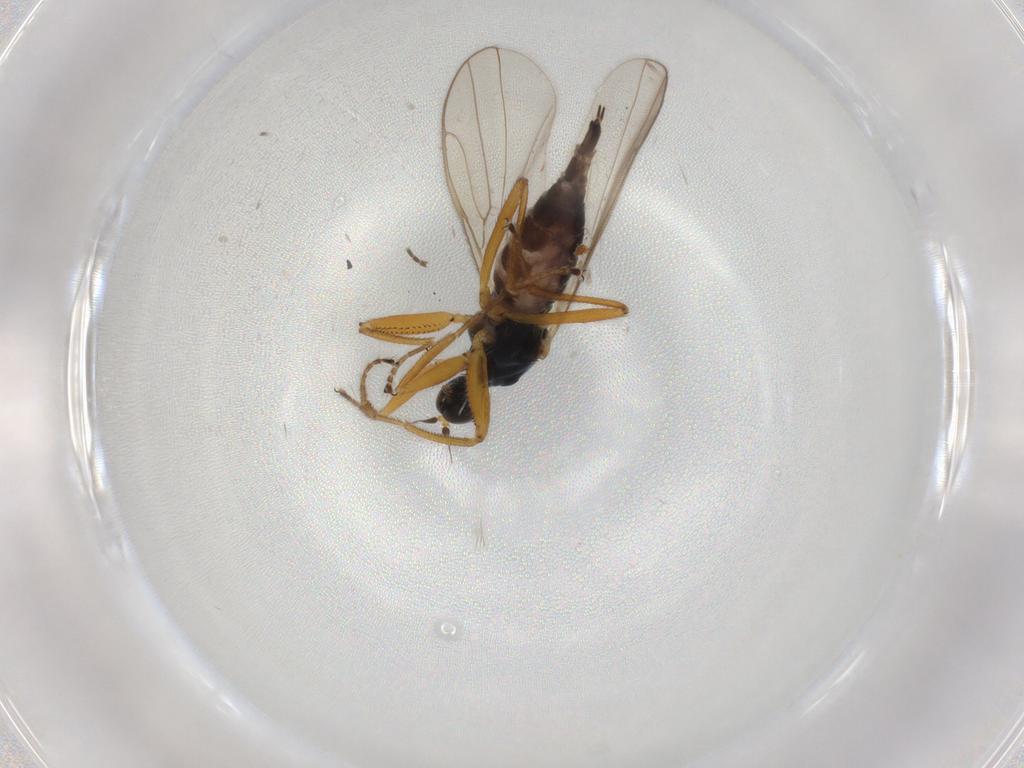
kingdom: Animalia
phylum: Arthropoda
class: Insecta
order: Diptera
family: Hybotidae
